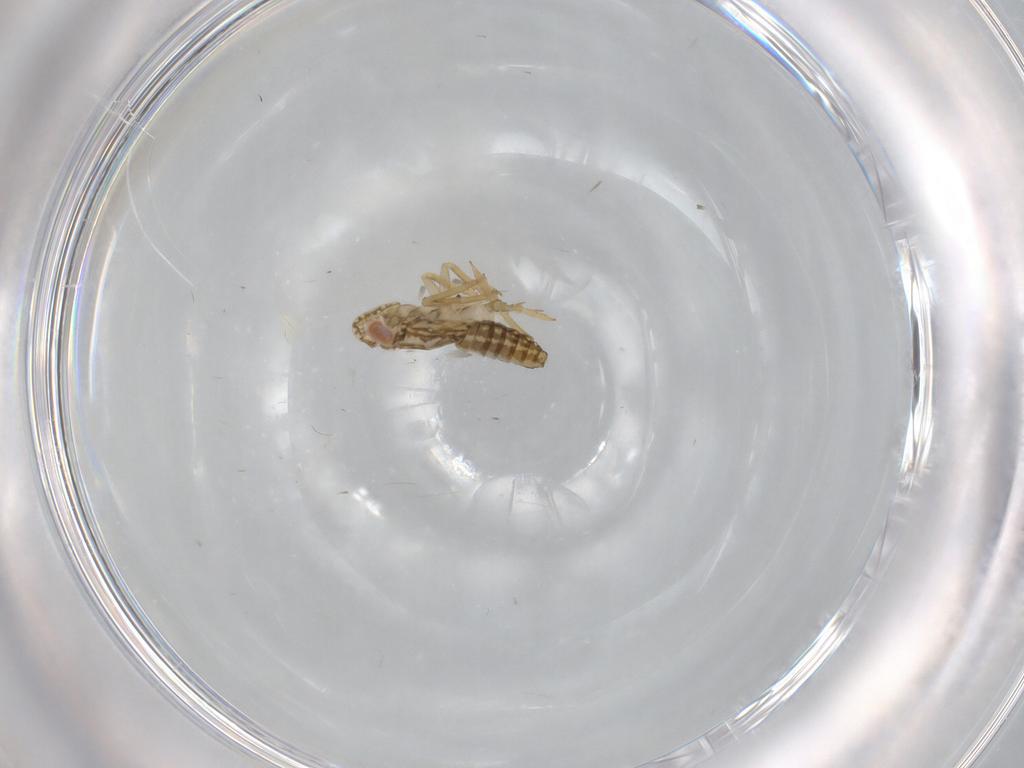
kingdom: Animalia
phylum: Arthropoda
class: Insecta
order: Hemiptera
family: Delphacidae
